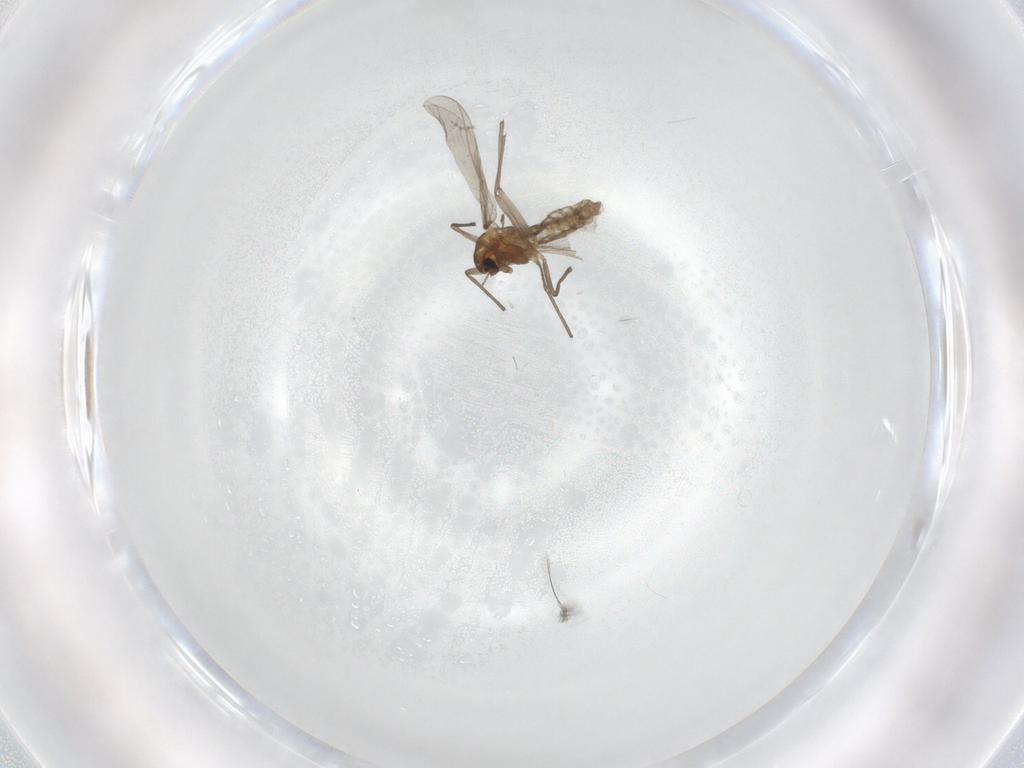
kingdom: Animalia
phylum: Arthropoda
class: Insecta
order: Diptera
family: Chironomidae
